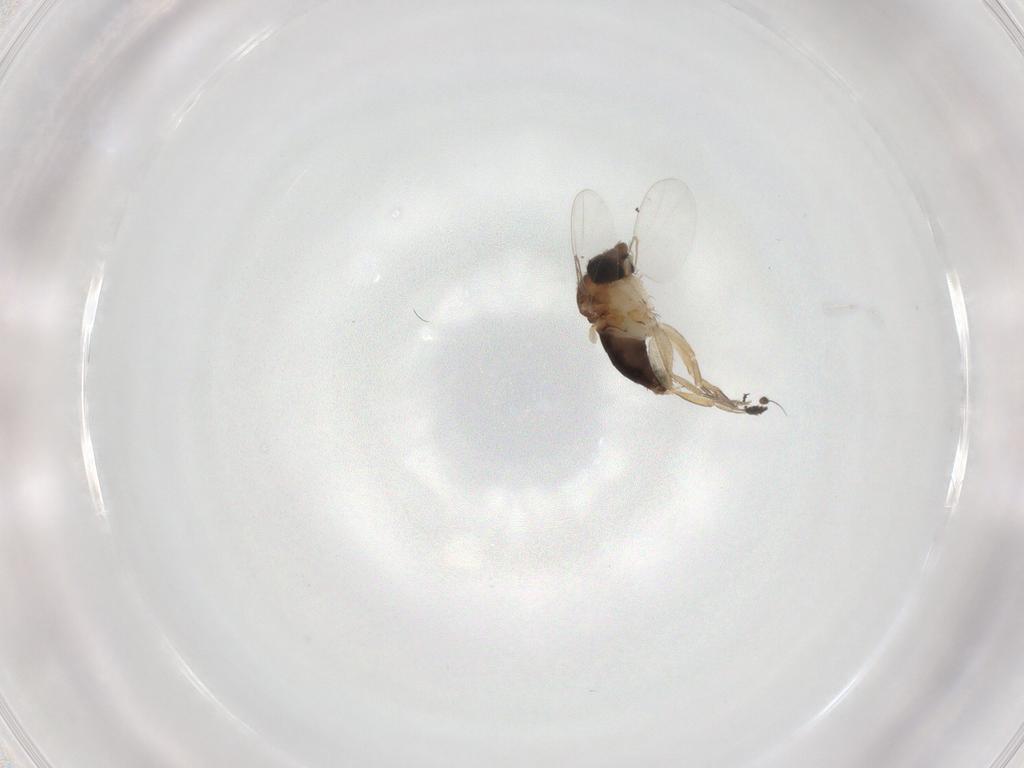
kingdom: Animalia
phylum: Arthropoda
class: Insecta
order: Diptera
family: Phoridae
